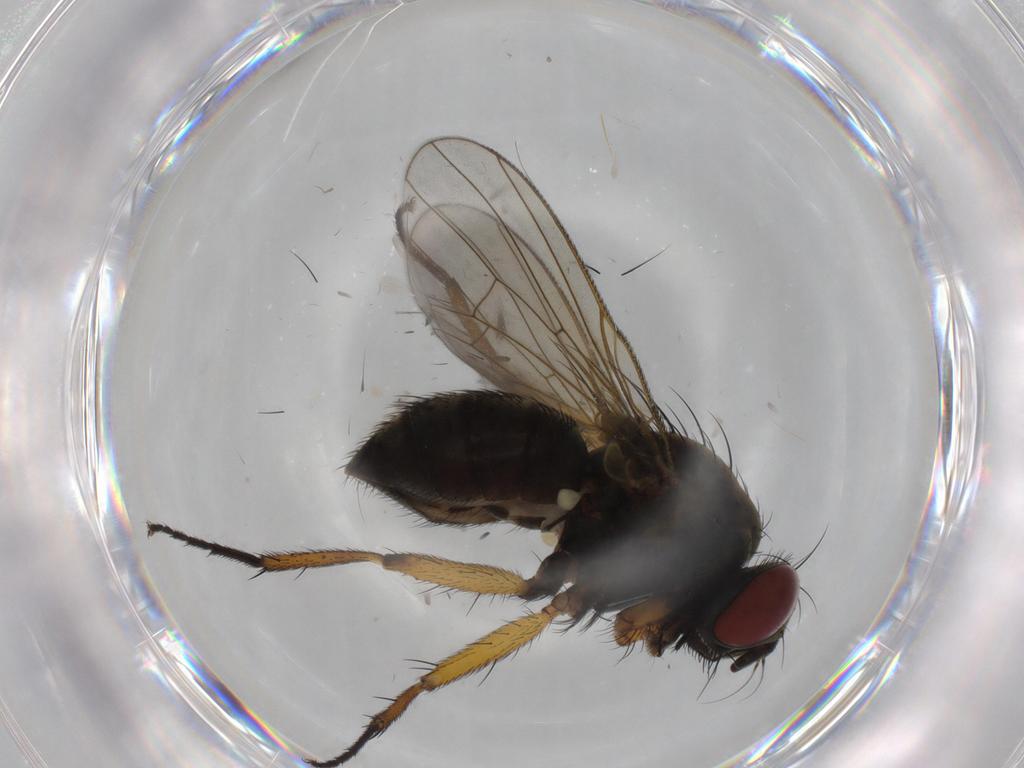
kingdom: Animalia
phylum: Arthropoda
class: Insecta
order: Diptera
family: Muscidae
